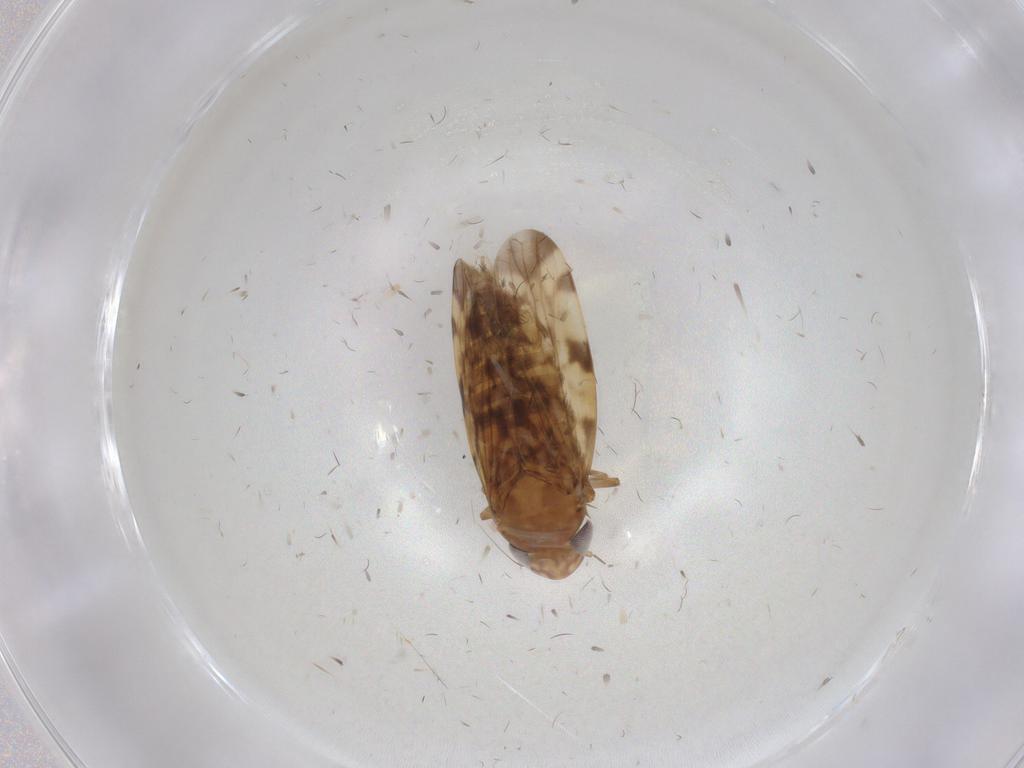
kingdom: Animalia
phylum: Arthropoda
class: Insecta
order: Hemiptera
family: Cicadellidae
